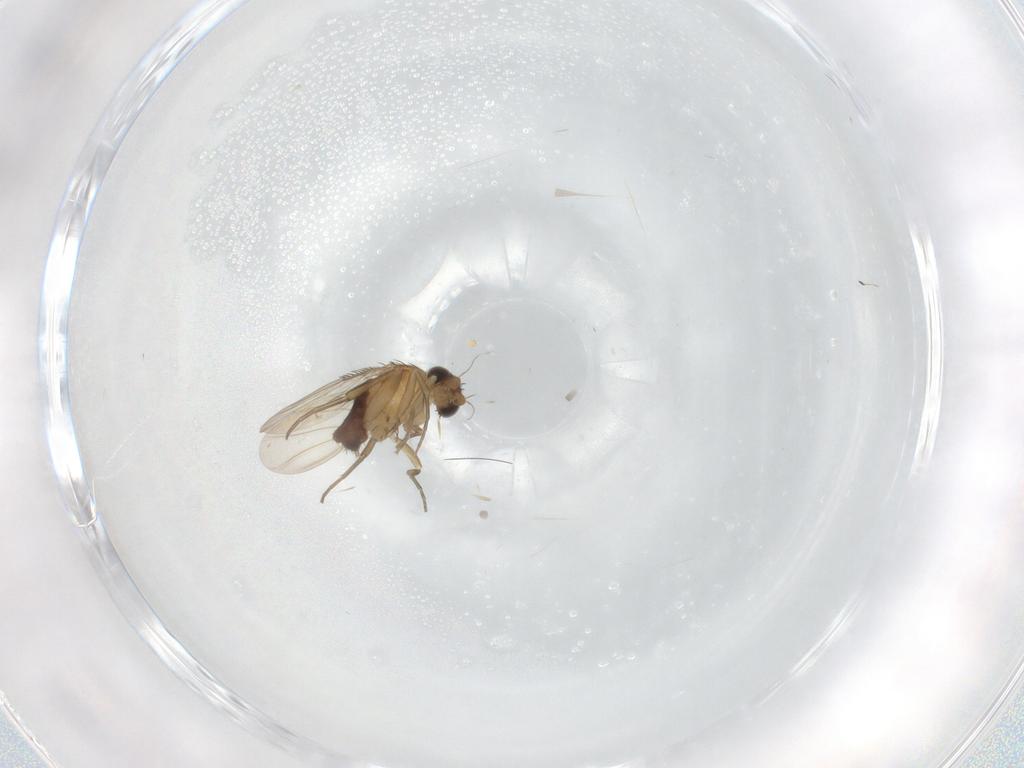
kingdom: Animalia
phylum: Arthropoda
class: Insecta
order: Diptera
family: Phoridae
